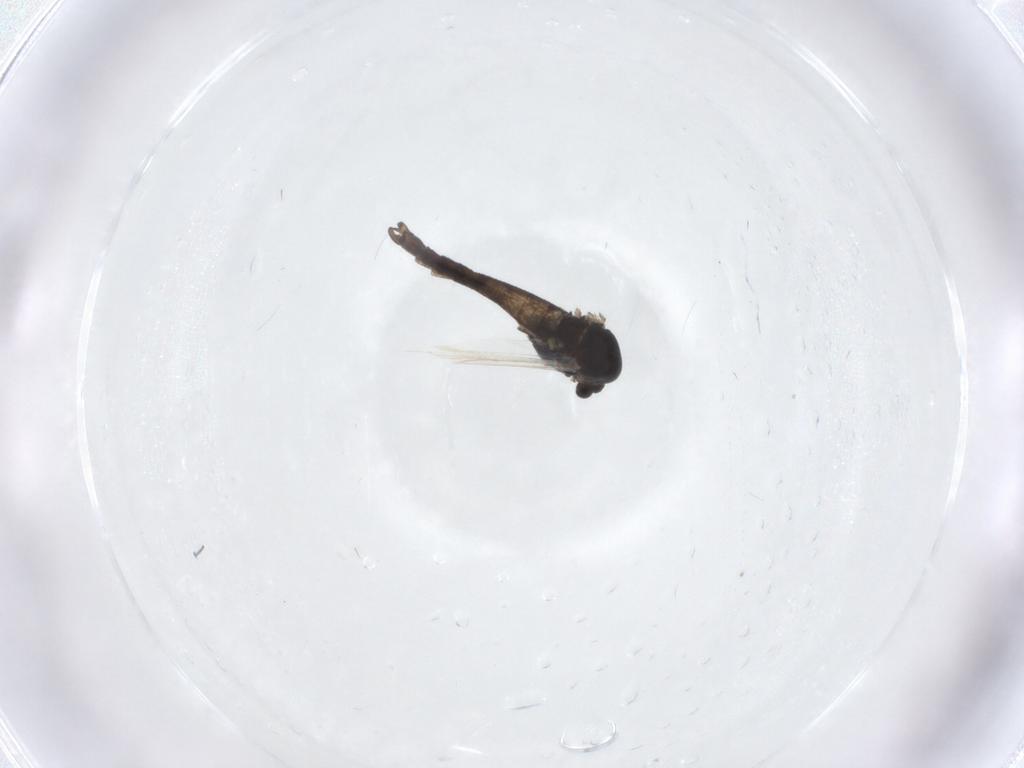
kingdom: Animalia
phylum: Arthropoda
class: Insecta
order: Diptera
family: Chironomidae
